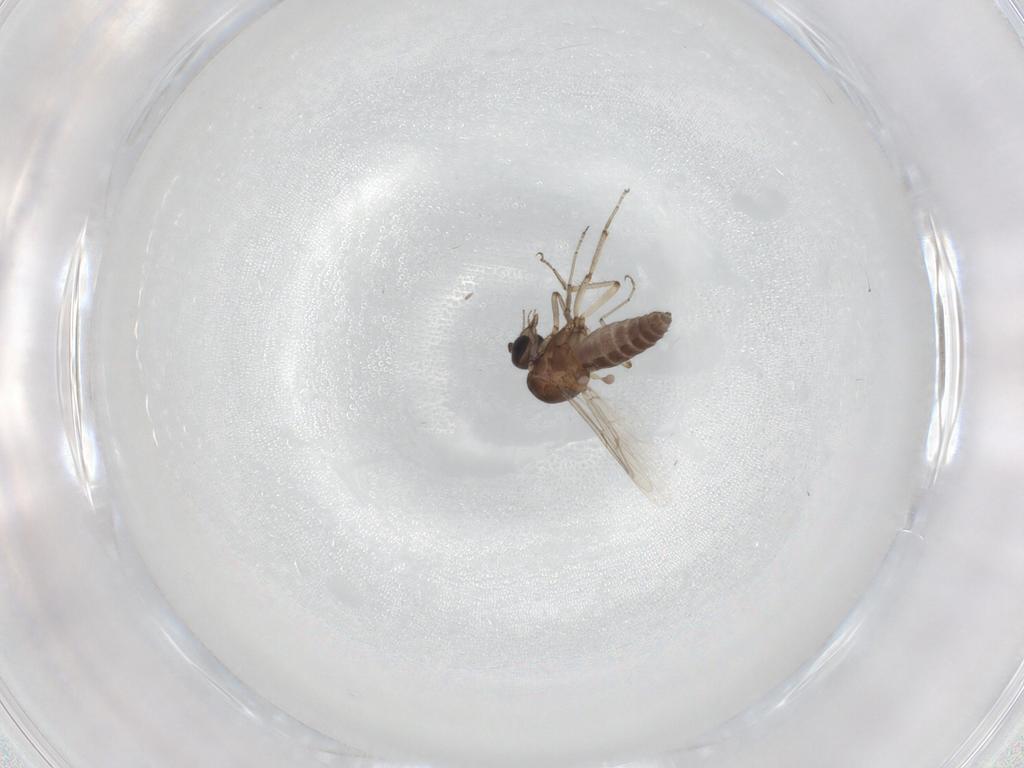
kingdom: Animalia
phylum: Arthropoda
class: Insecta
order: Diptera
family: Ceratopogonidae
